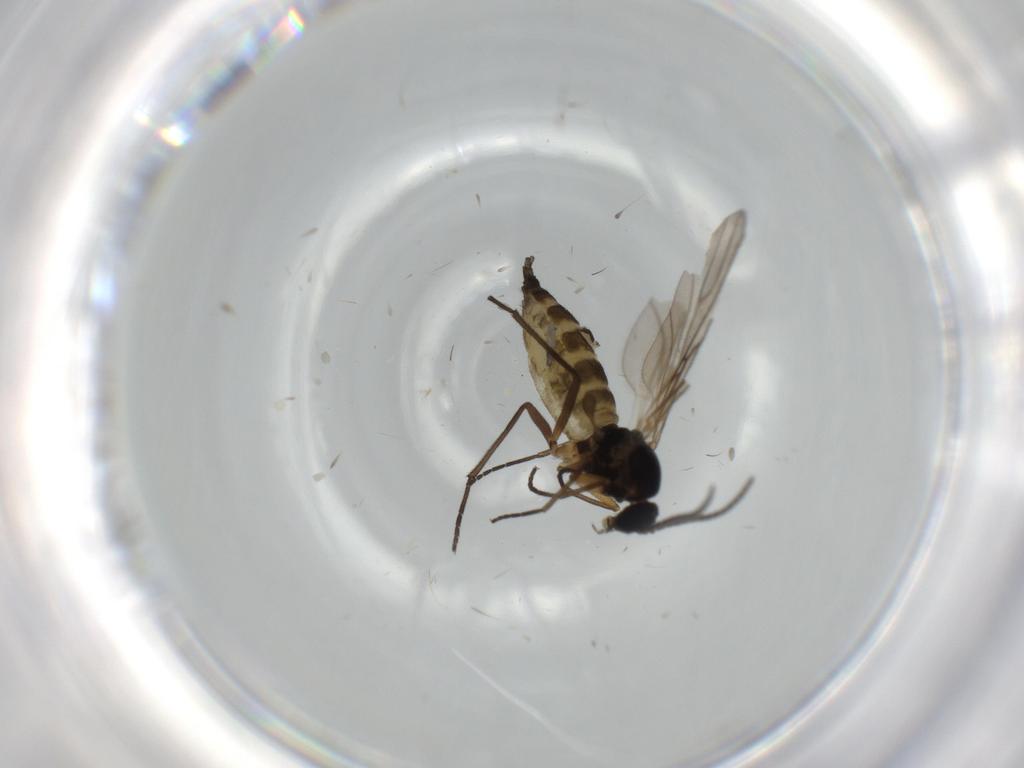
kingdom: Animalia
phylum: Arthropoda
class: Insecta
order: Diptera
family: Sciaridae
